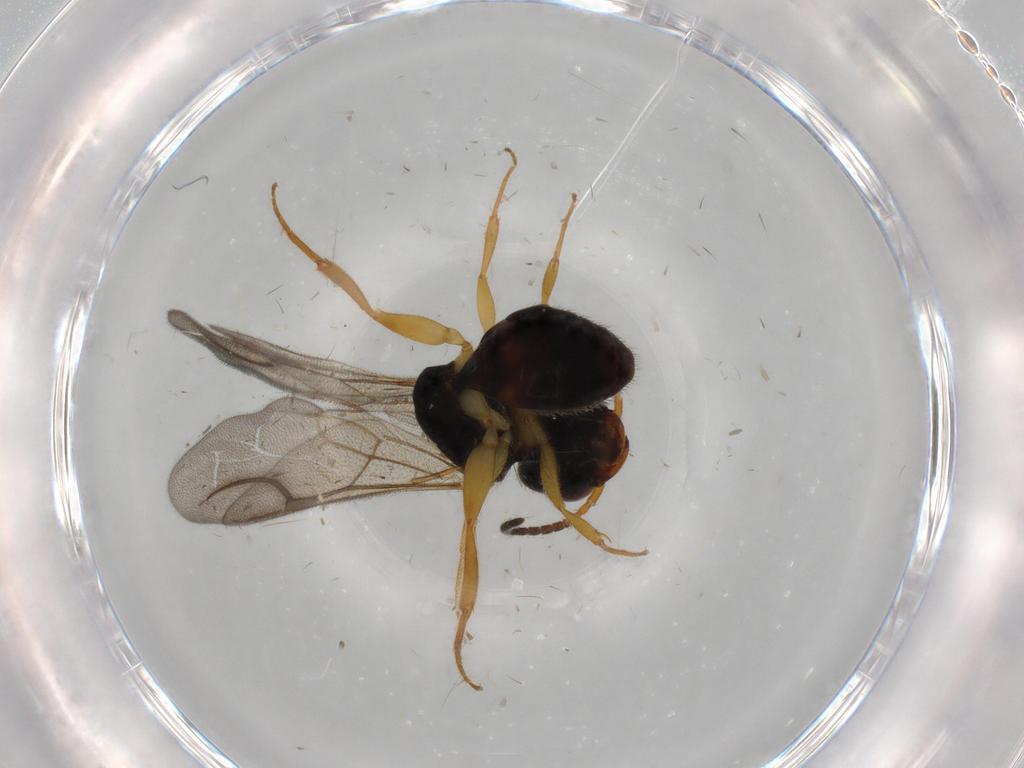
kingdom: Animalia
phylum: Arthropoda
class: Insecta
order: Hymenoptera
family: Bethylidae
